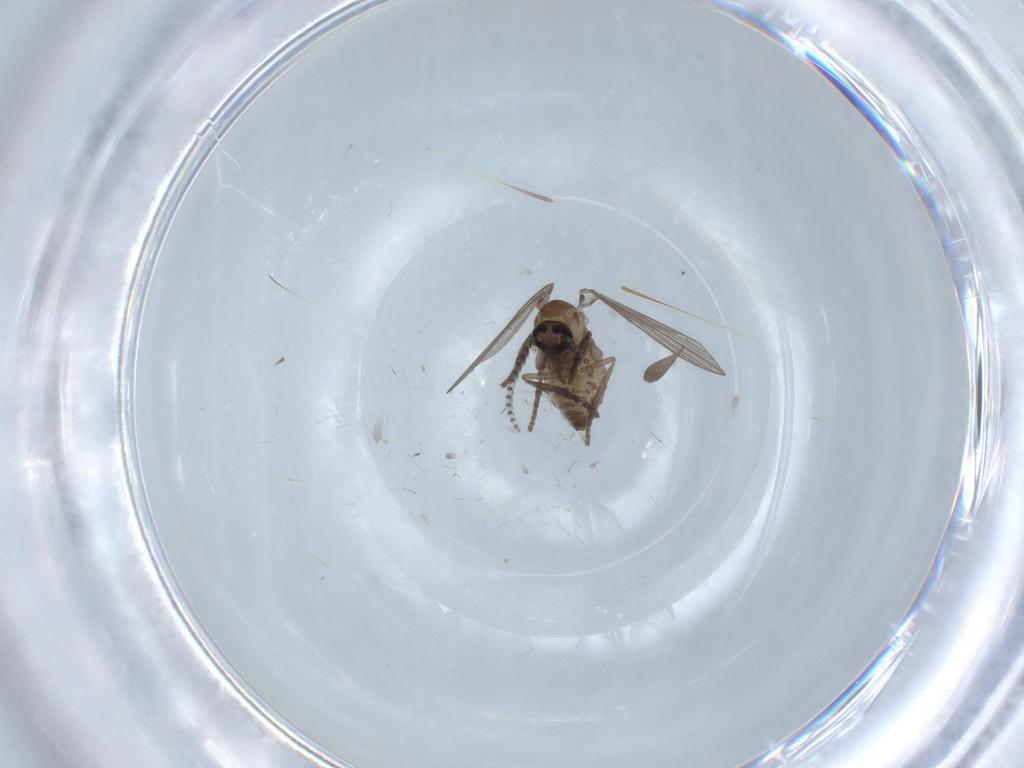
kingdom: Animalia
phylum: Arthropoda
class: Insecta
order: Diptera
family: Psychodidae
